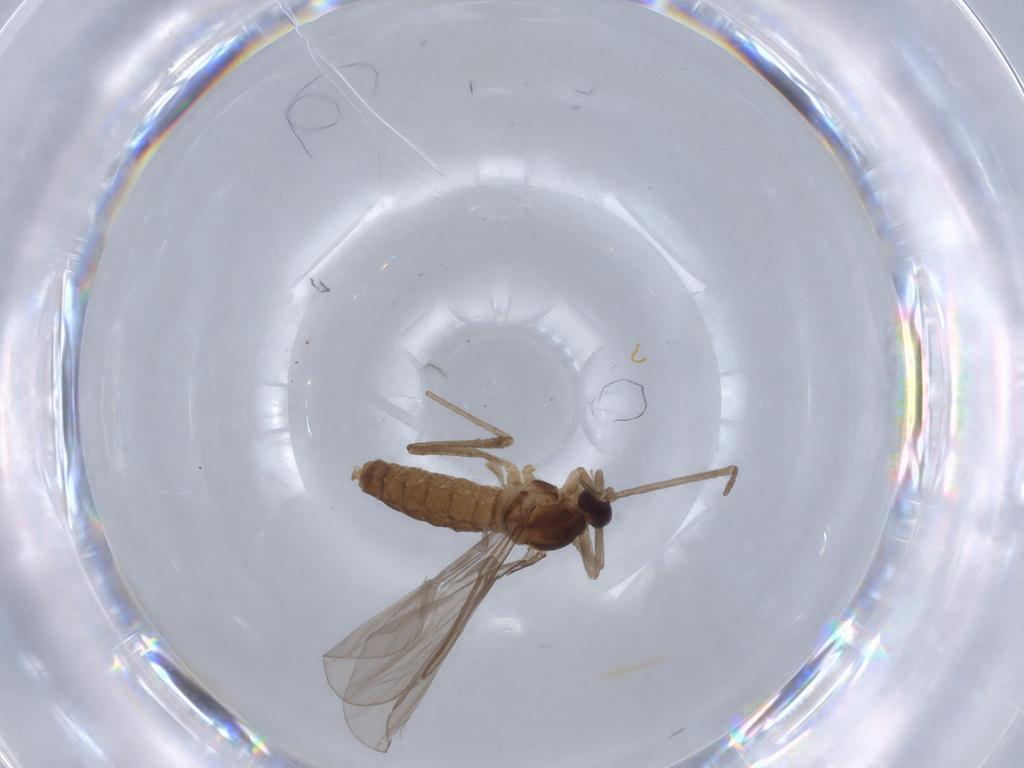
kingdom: Animalia
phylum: Arthropoda
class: Insecta
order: Diptera
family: Cecidomyiidae
